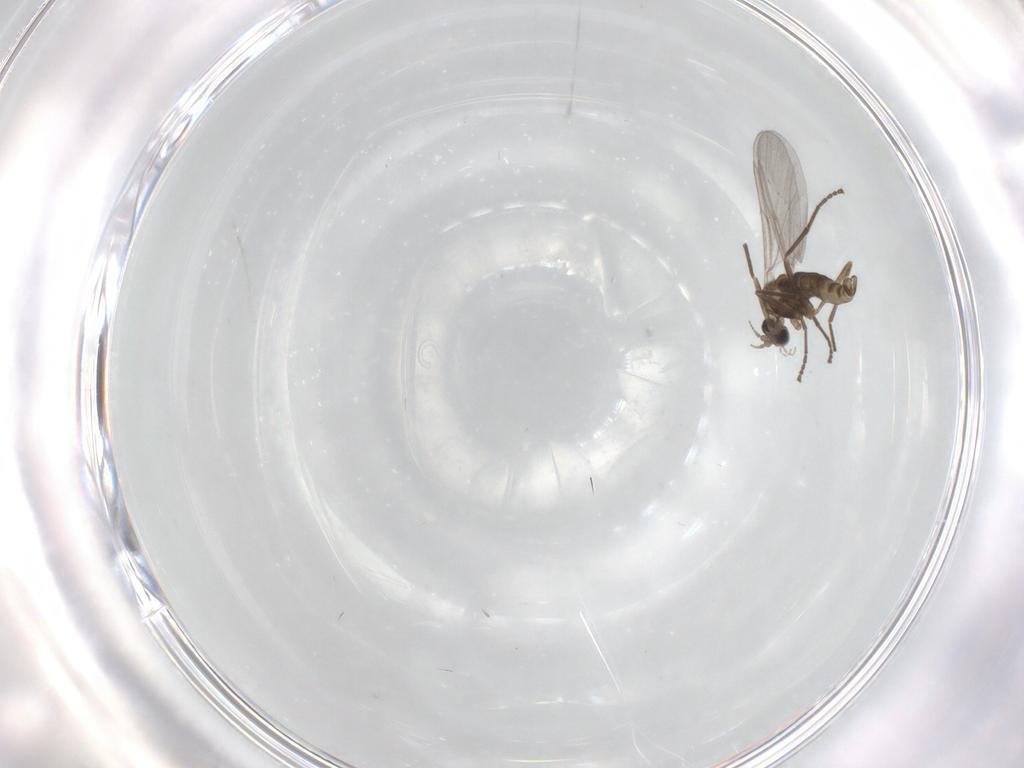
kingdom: Animalia
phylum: Arthropoda
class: Insecta
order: Diptera
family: Cecidomyiidae
